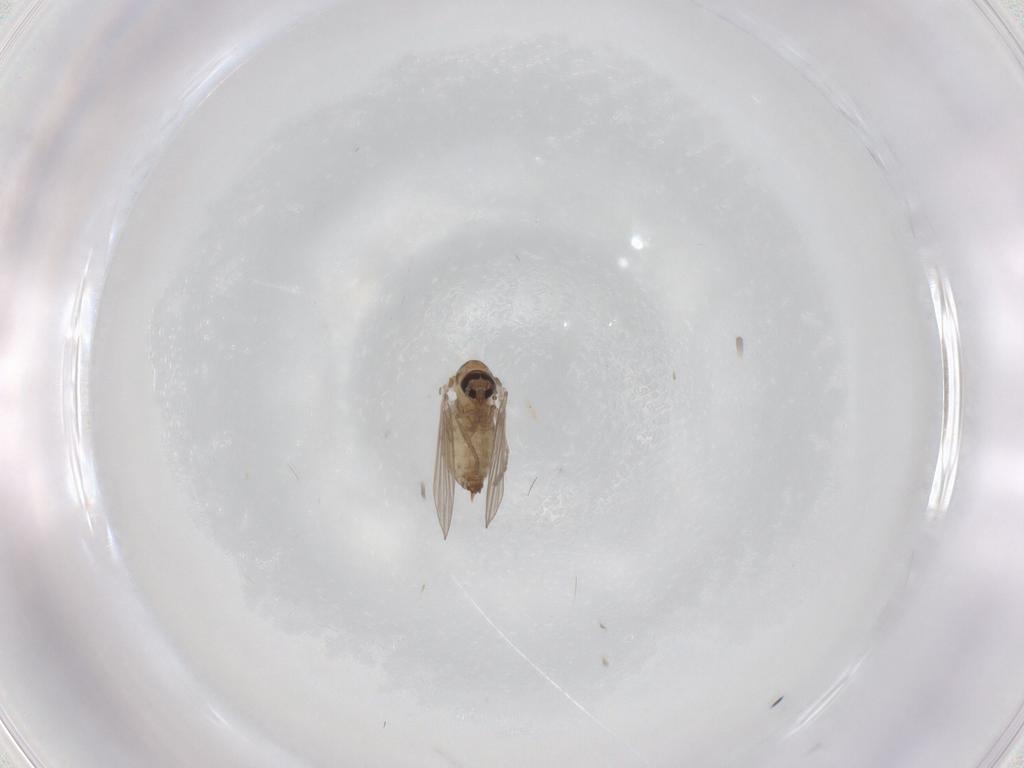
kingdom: Animalia
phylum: Arthropoda
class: Insecta
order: Diptera
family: Psychodidae
